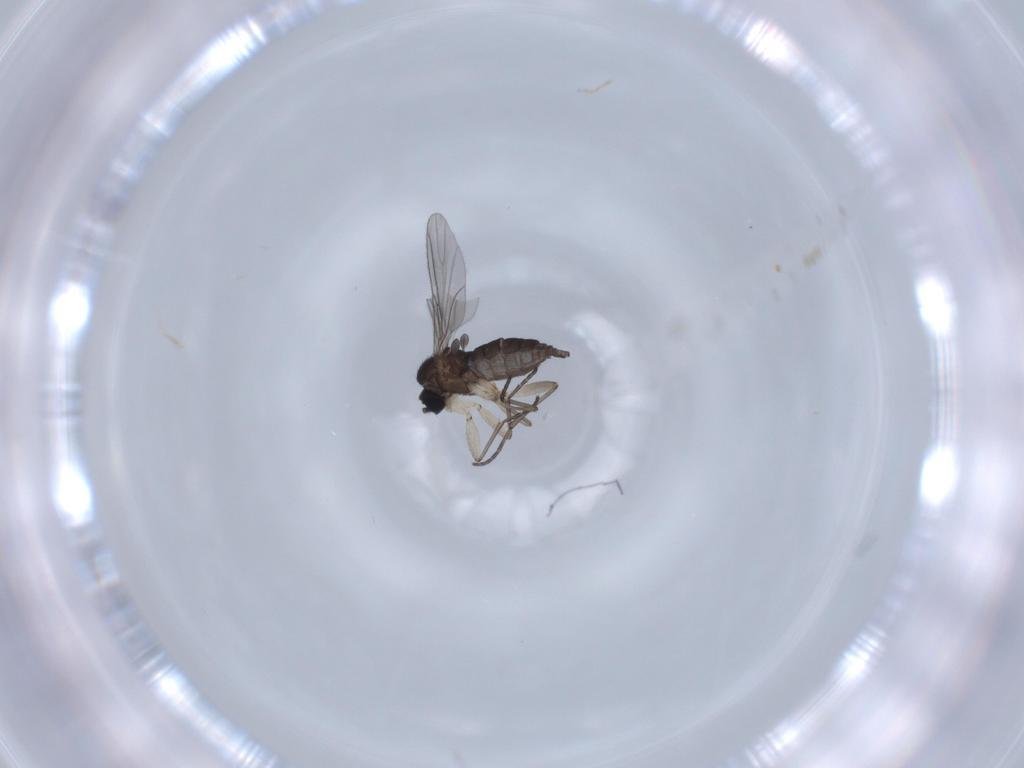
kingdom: Animalia
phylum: Arthropoda
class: Insecta
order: Diptera
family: Sciaridae
